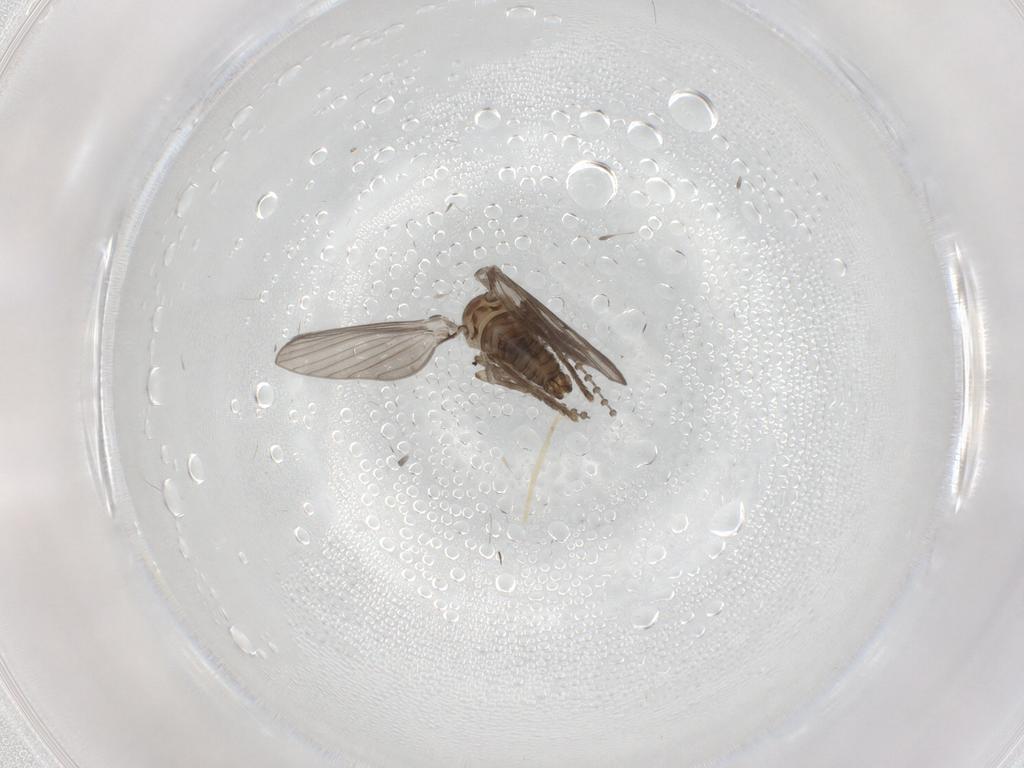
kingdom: Animalia
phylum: Arthropoda
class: Insecta
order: Diptera
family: Psychodidae
